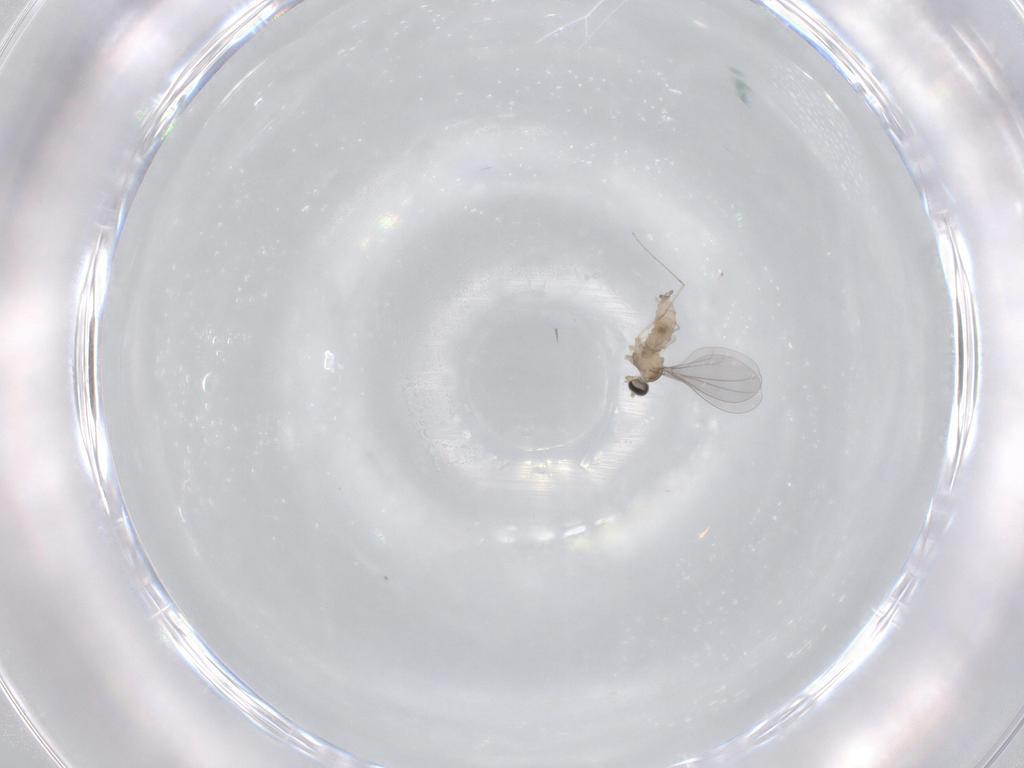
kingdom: Animalia
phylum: Arthropoda
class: Insecta
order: Diptera
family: Cecidomyiidae
